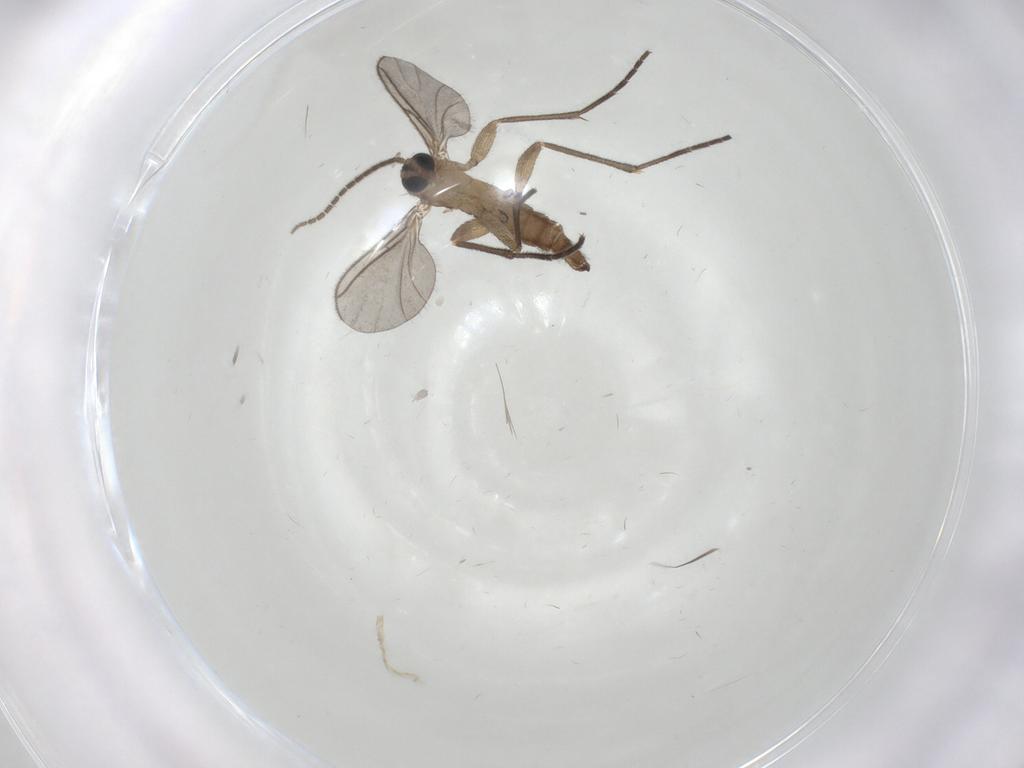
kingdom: Animalia
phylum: Arthropoda
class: Insecta
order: Diptera
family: Sciaridae
